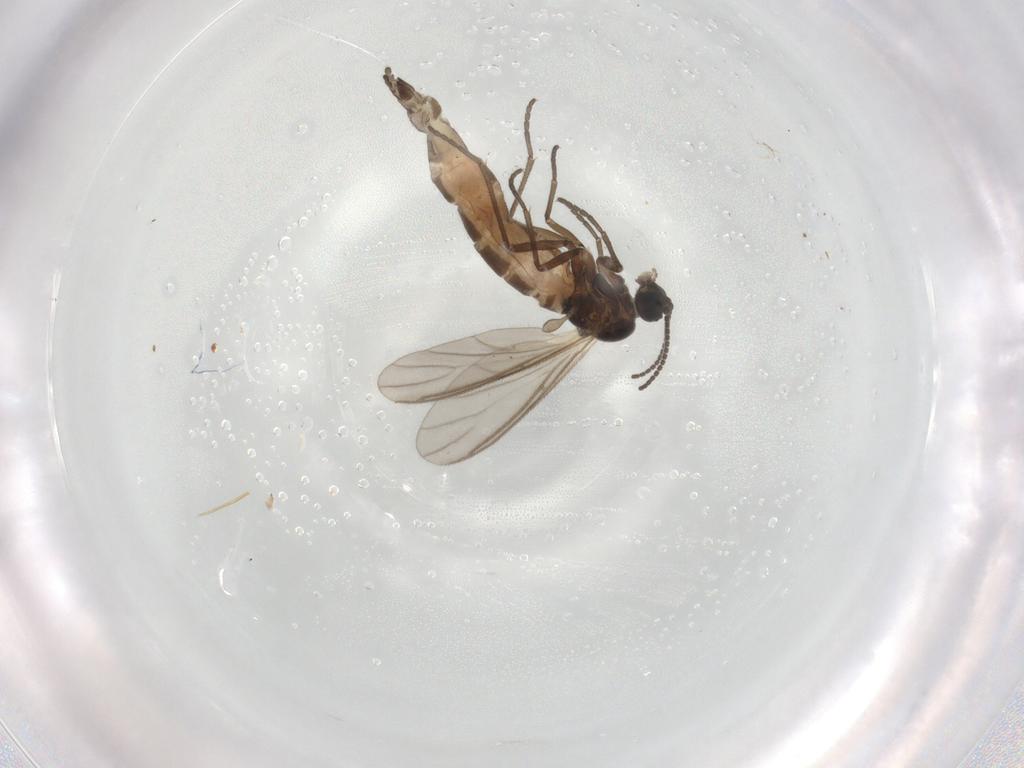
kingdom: Animalia
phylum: Arthropoda
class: Insecta
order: Diptera
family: Sciaridae
